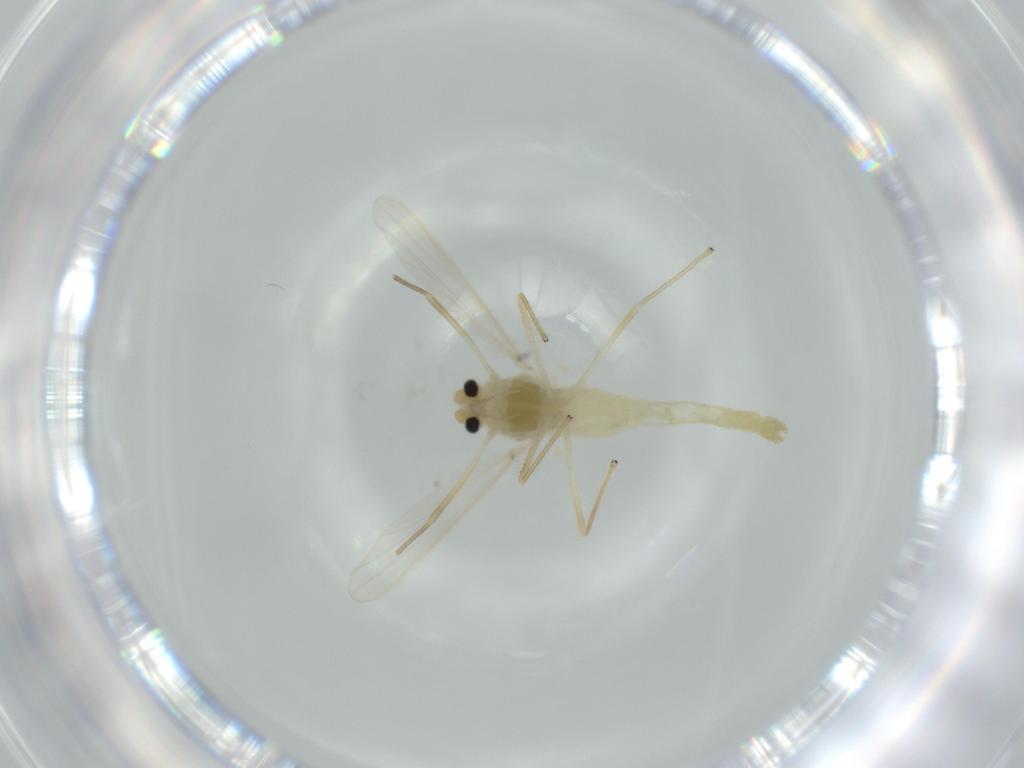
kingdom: Animalia
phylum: Arthropoda
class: Insecta
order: Diptera
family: Chironomidae
